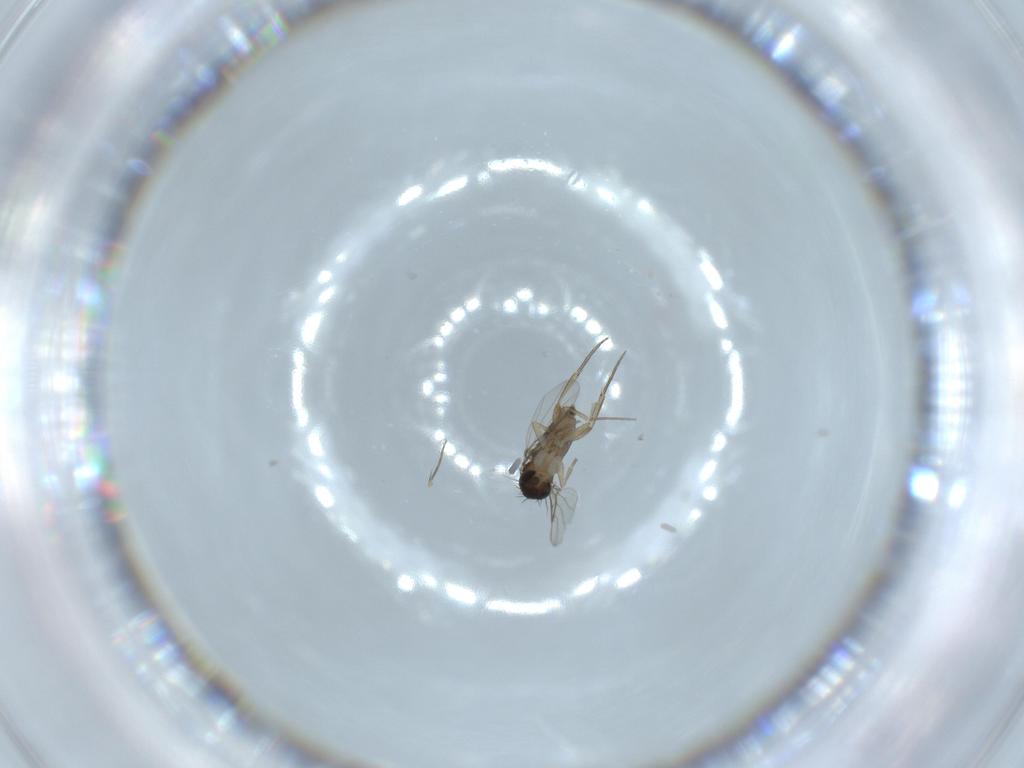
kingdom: Animalia
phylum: Arthropoda
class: Insecta
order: Diptera
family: Phoridae
